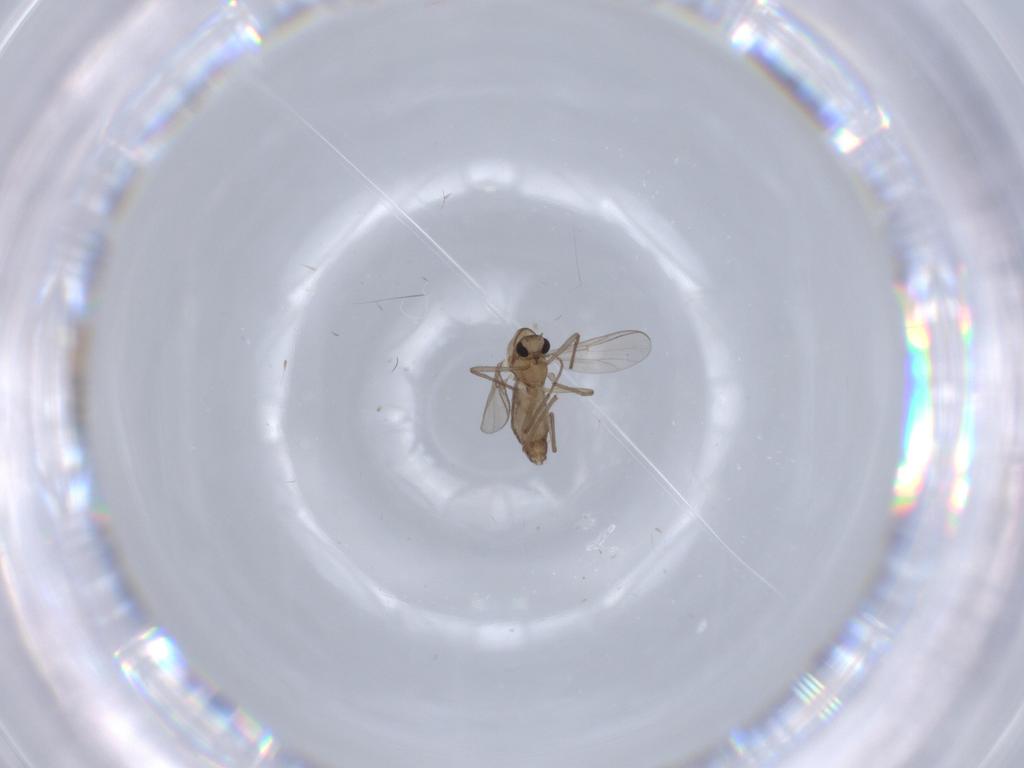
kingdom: Animalia
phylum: Arthropoda
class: Insecta
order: Diptera
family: Chironomidae
